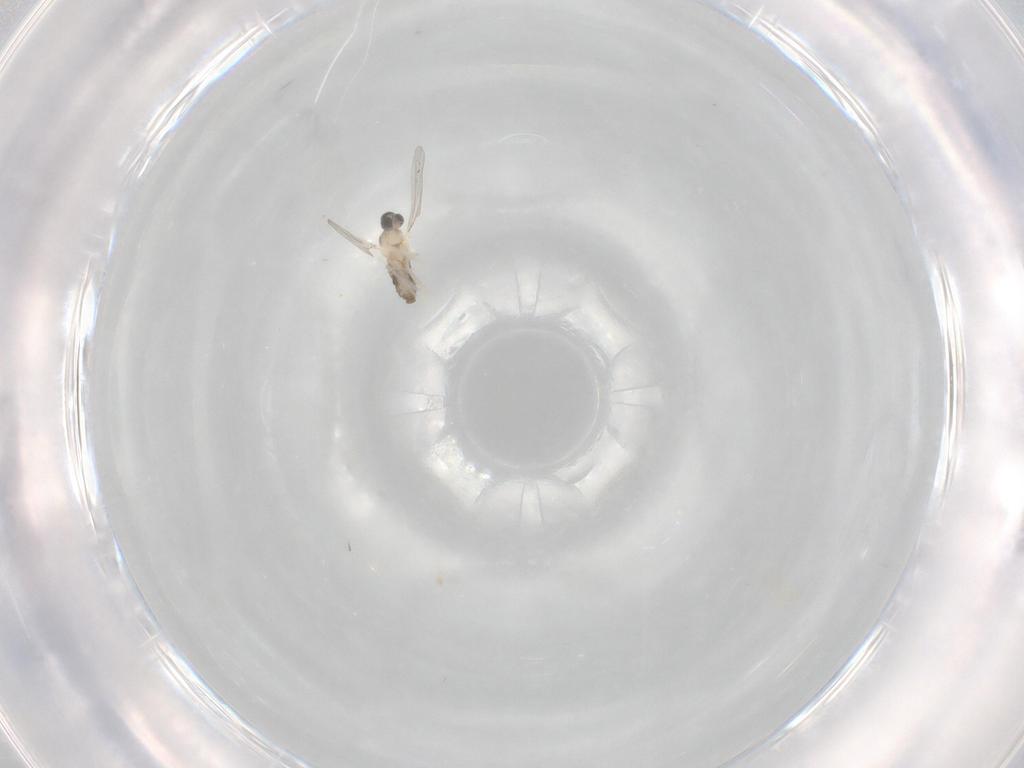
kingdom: Animalia
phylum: Arthropoda
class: Insecta
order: Diptera
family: Cecidomyiidae
